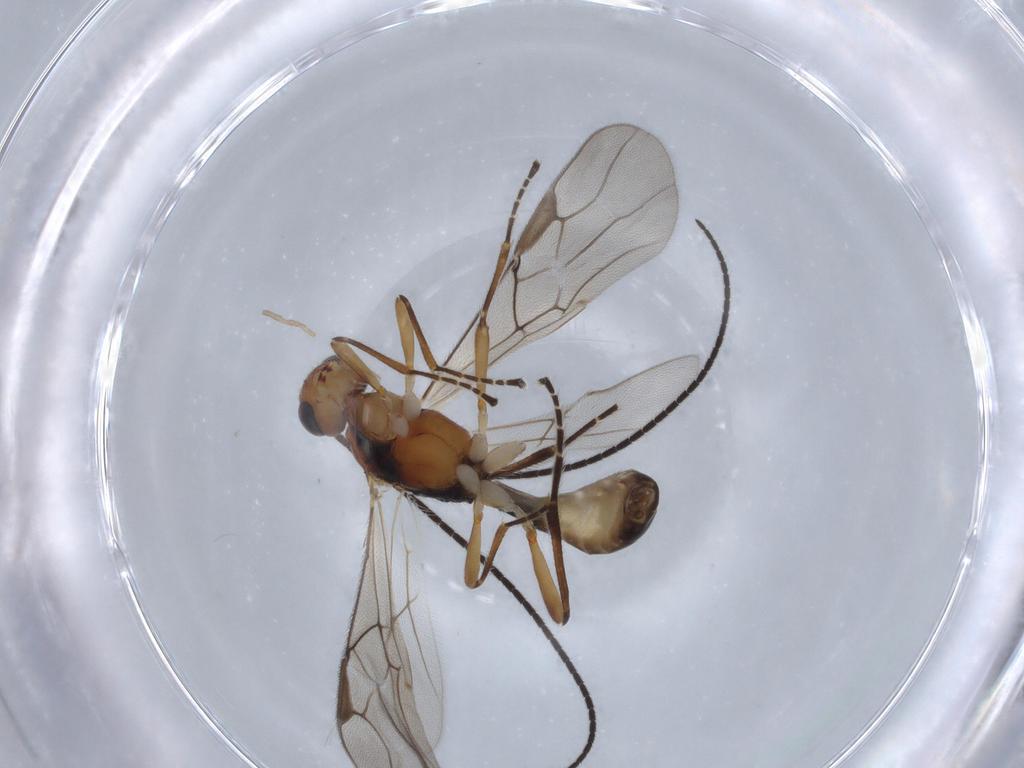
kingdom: Animalia
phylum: Arthropoda
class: Insecta
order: Hymenoptera
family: Braconidae
